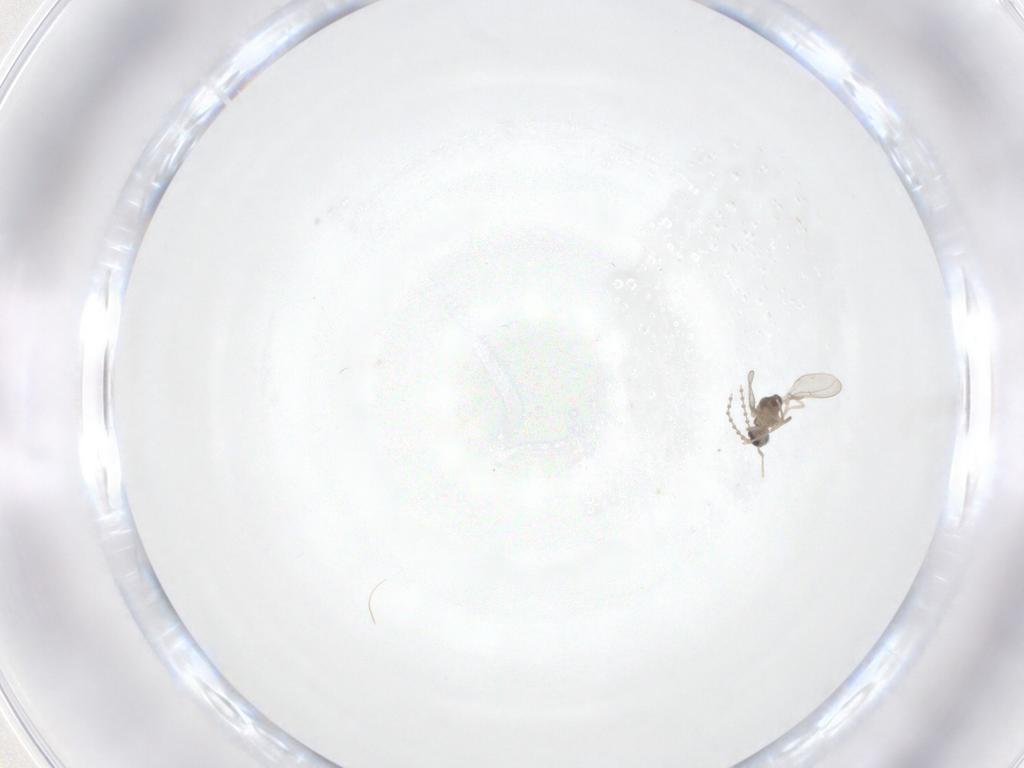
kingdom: Animalia
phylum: Arthropoda
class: Insecta
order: Diptera
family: Cecidomyiidae
